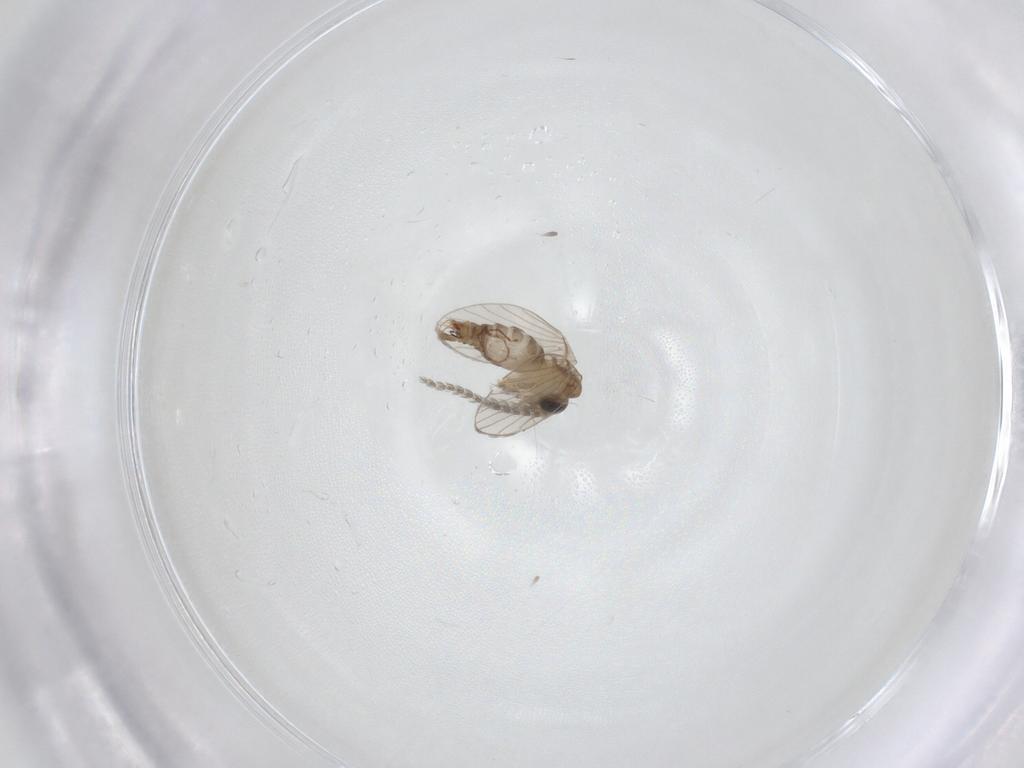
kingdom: Animalia
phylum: Arthropoda
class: Insecta
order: Diptera
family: Psychodidae
